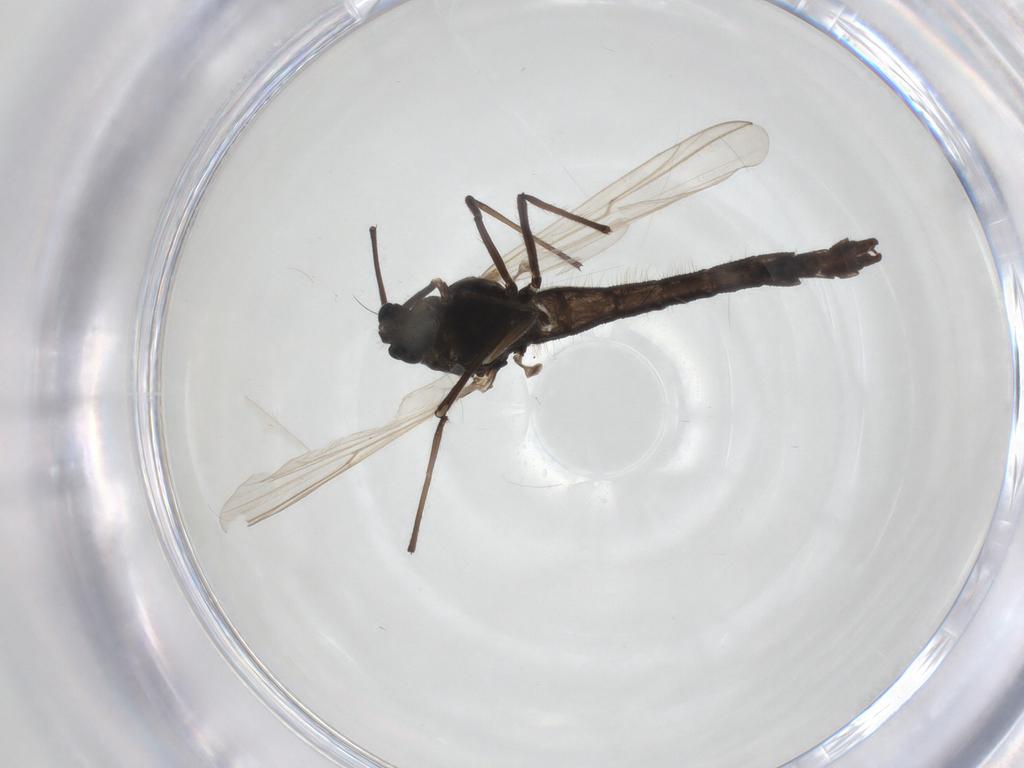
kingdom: Animalia
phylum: Arthropoda
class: Insecta
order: Diptera
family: Chironomidae
